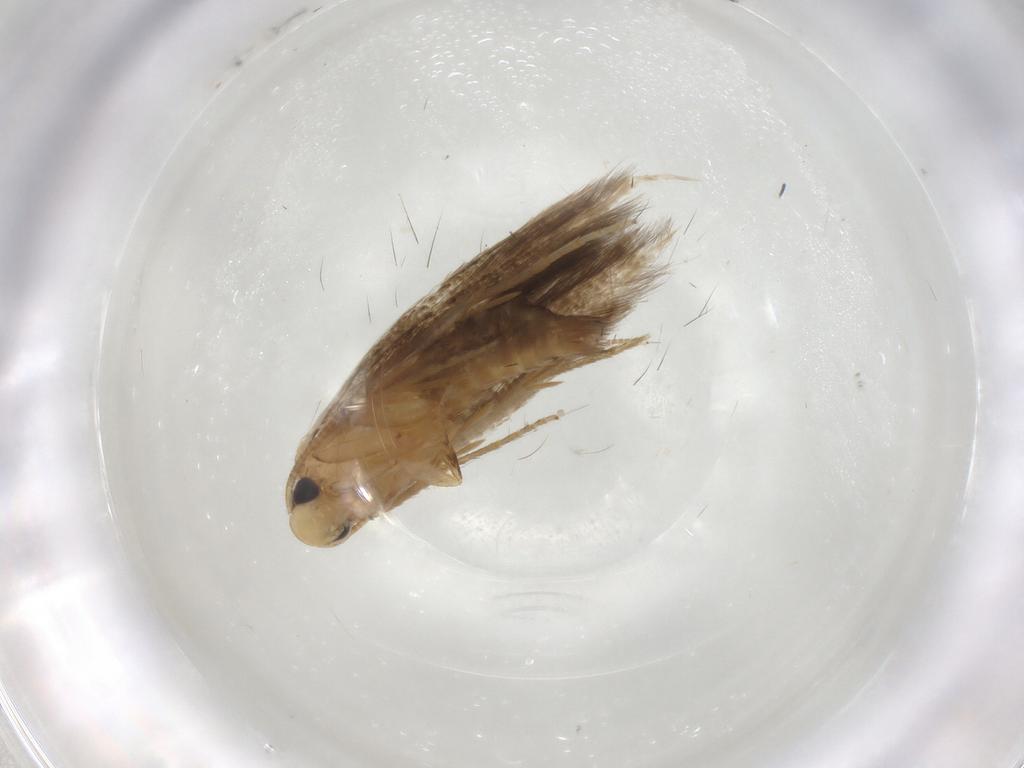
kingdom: Animalia
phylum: Arthropoda
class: Insecta
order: Lepidoptera
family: Tineidae
